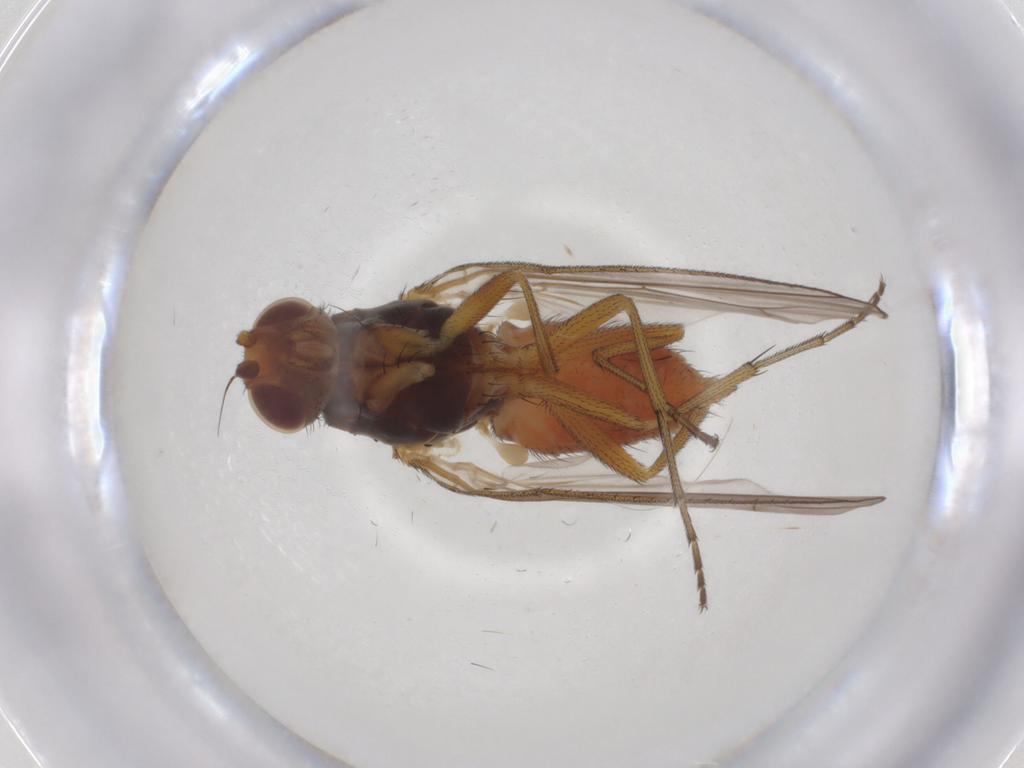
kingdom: Animalia
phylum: Arthropoda
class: Insecta
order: Diptera
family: Heleomyzidae
